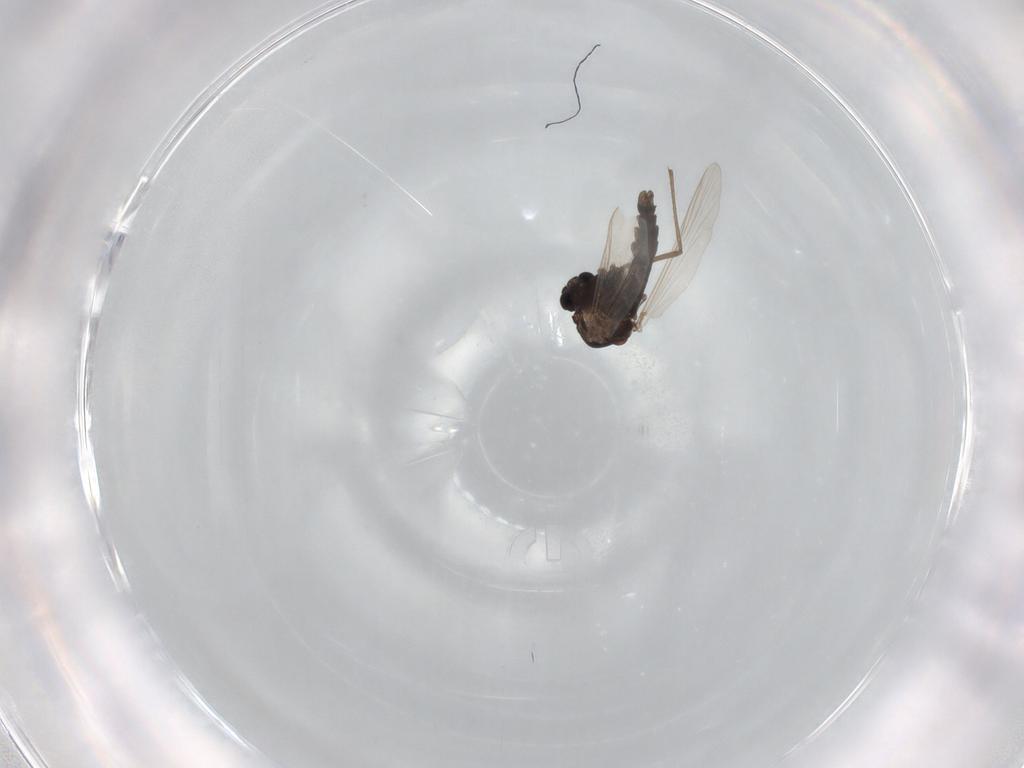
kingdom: Animalia
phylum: Arthropoda
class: Insecta
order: Diptera
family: Chironomidae
